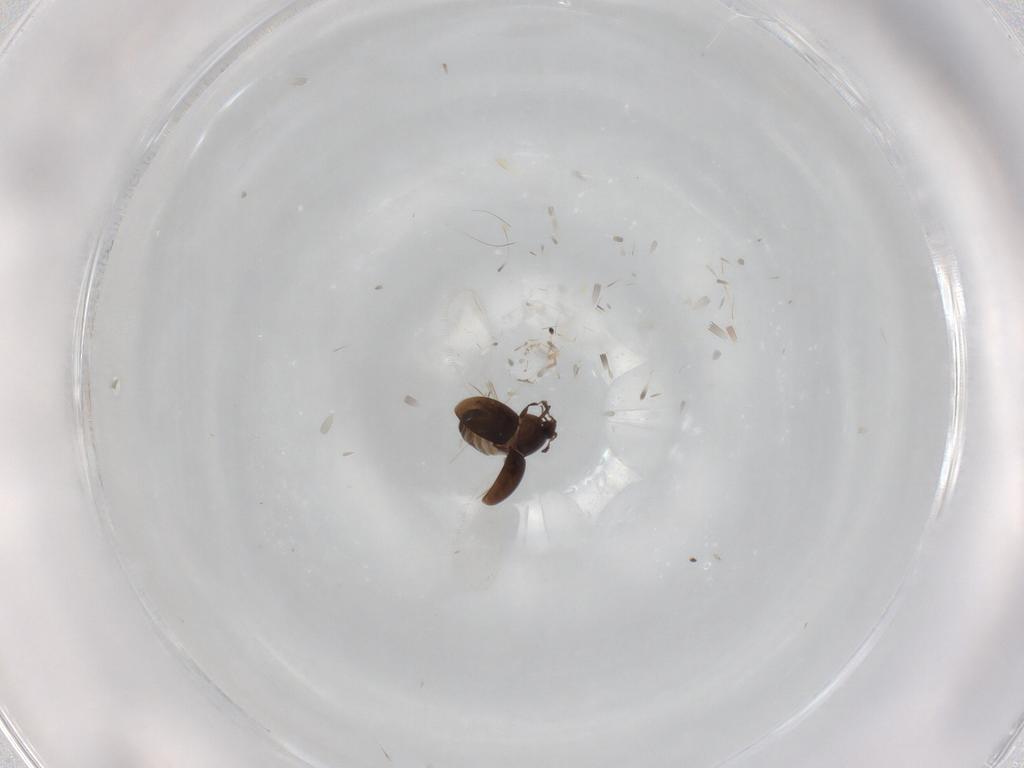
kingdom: Animalia
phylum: Arthropoda
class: Insecta
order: Coleoptera
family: Corylophidae
